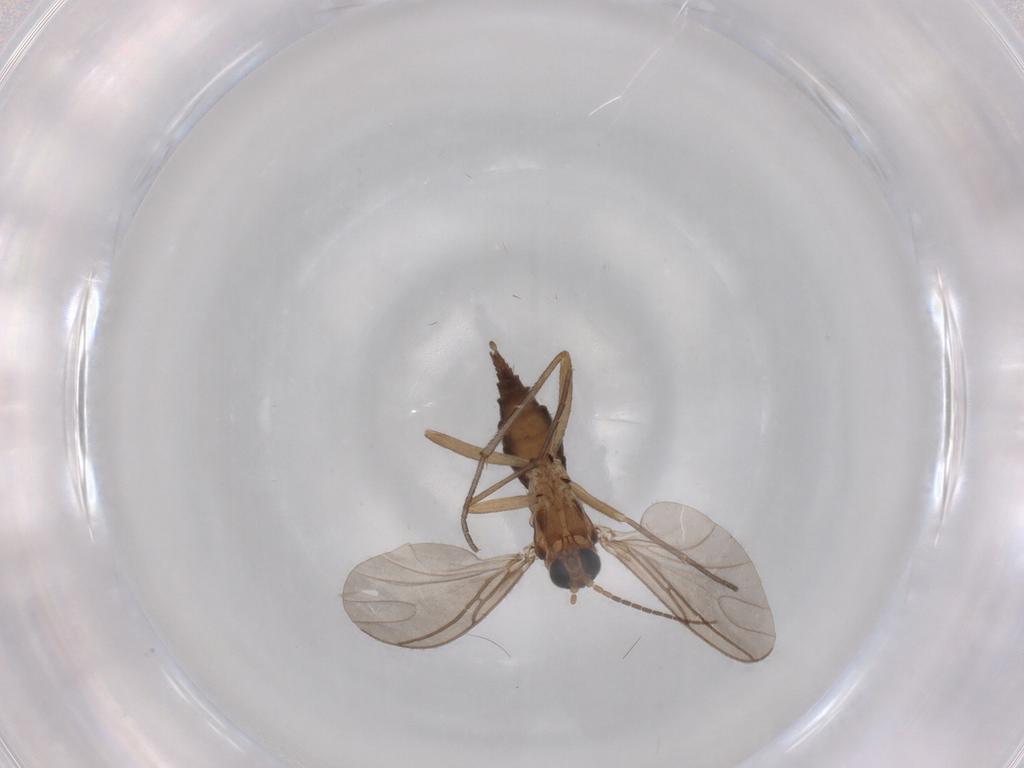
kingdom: Animalia
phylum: Arthropoda
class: Insecta
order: Diptera
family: Sciaridae
